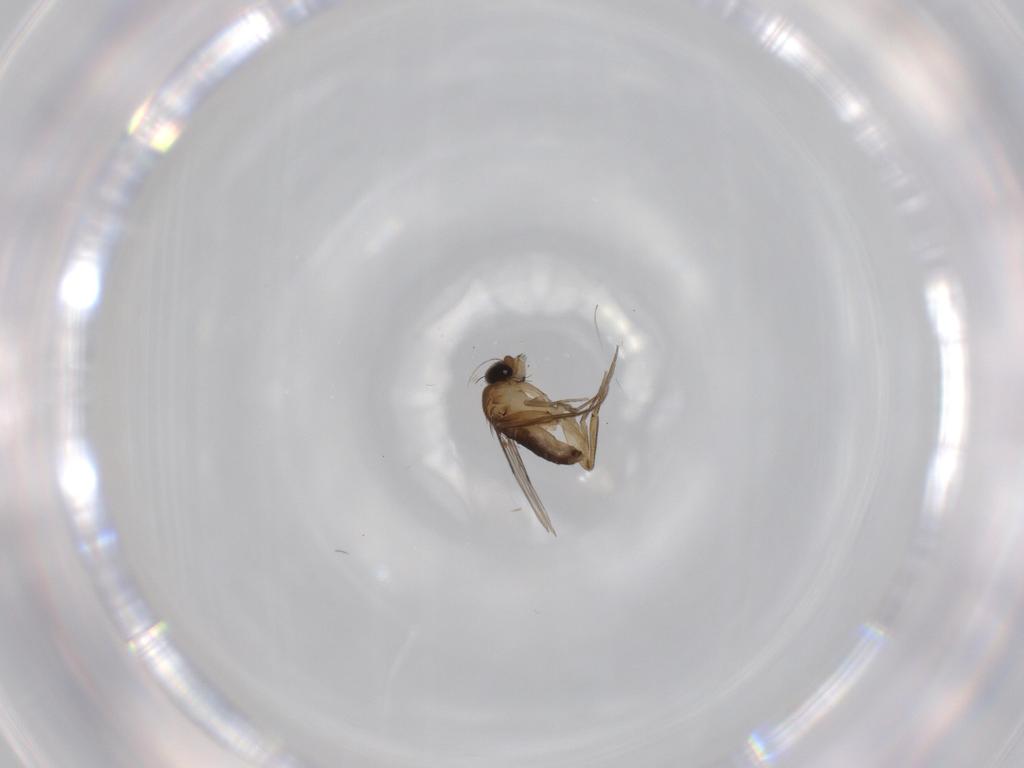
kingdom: Animalia
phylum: Arthropoda
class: Insecta
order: Diptera
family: Phoridae
